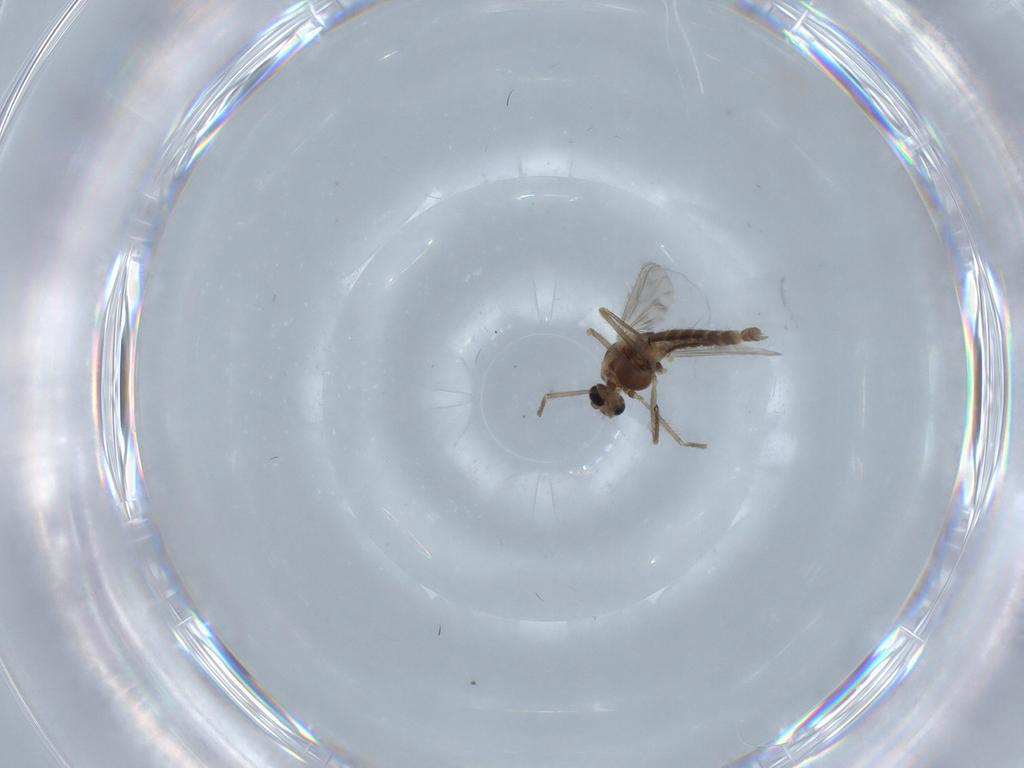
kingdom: Animalia
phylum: Arthropoda
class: Insecta
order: Diptera
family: Chironomidae
